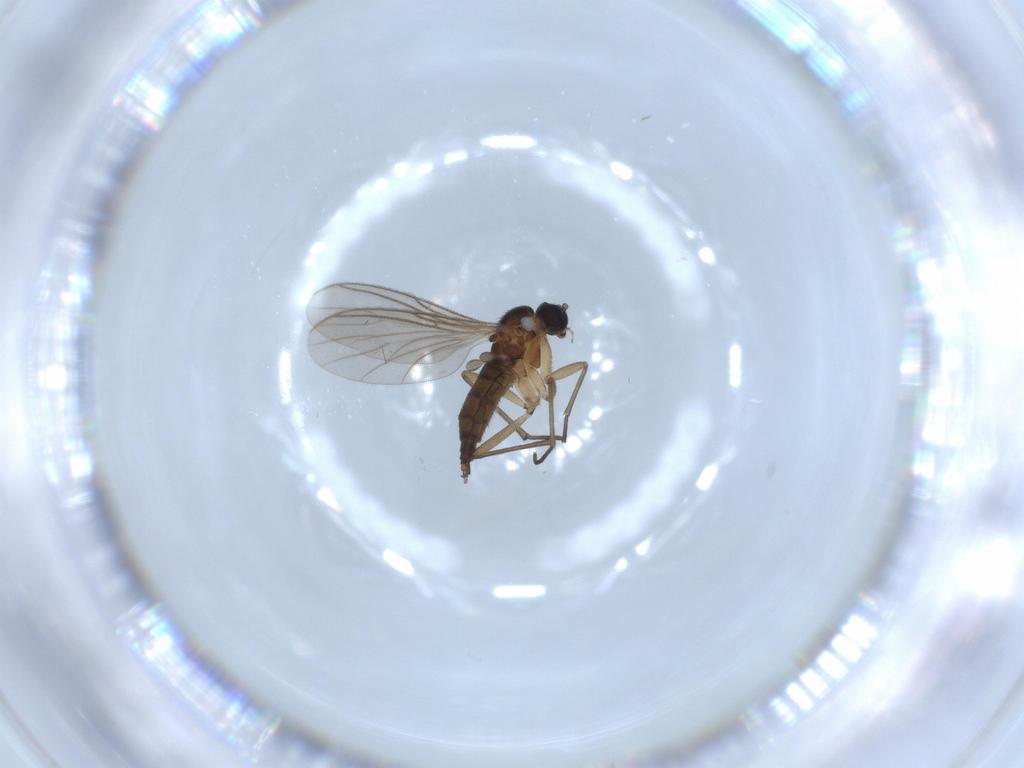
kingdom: Animalia
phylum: Arthropoda
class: Insecta
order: Diptera
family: Sciaridae
